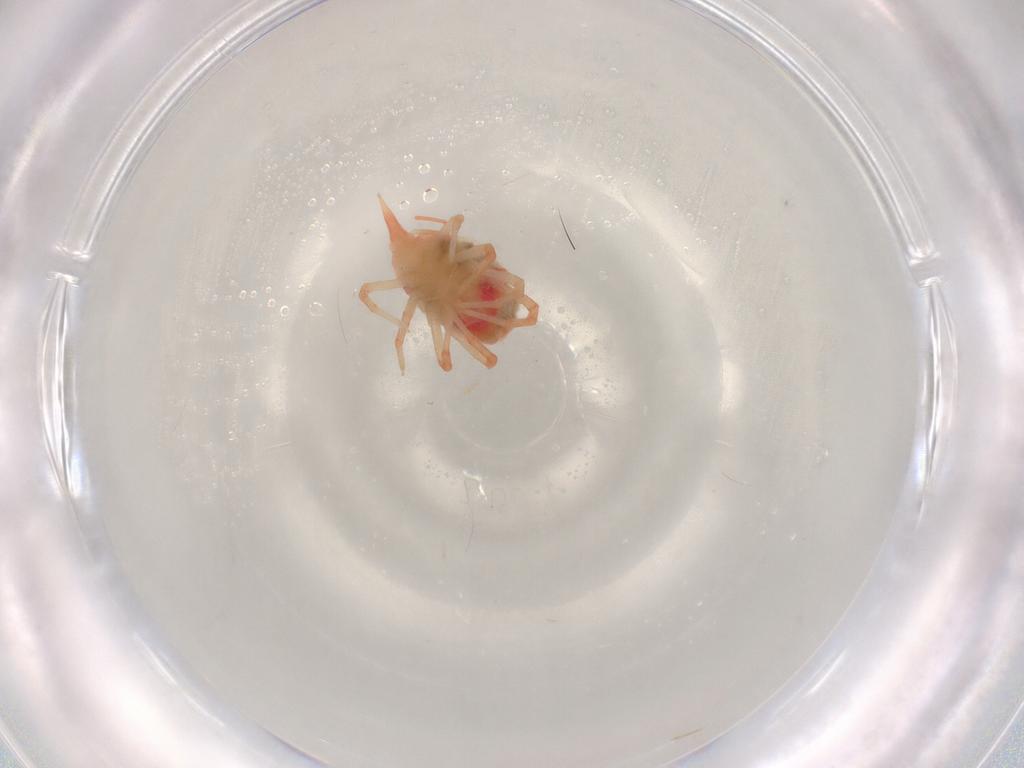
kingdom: Animalia
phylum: Arthropoda
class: Arachnida
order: Trombidiformes
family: Bdellidae
